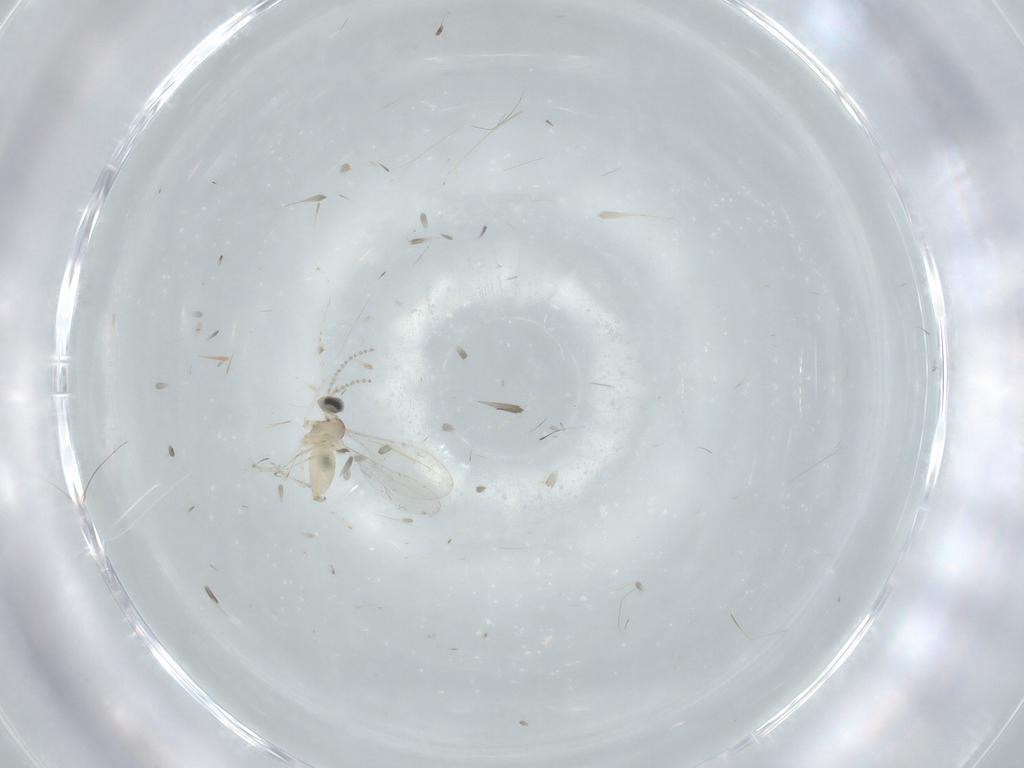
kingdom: Animalia
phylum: Arthropoda
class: Insecta
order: Diptera
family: Cecidomyiidae
